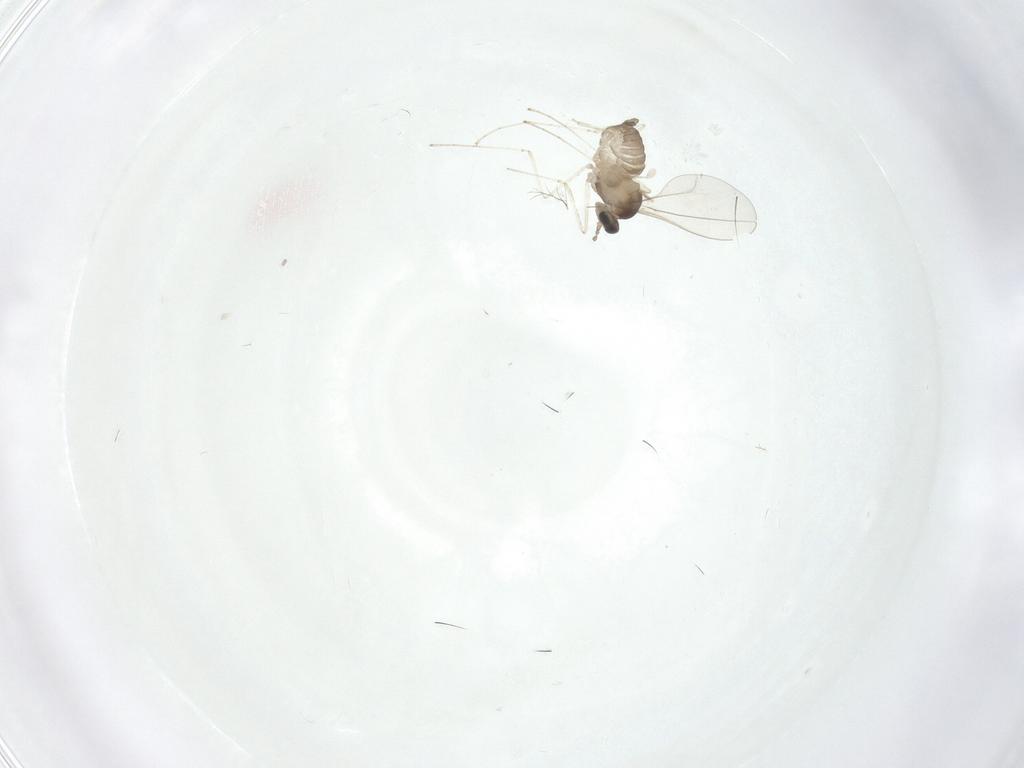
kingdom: Animalia
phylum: Arthropoda
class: Insecta
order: Diptera
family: Cecidomyiidae
